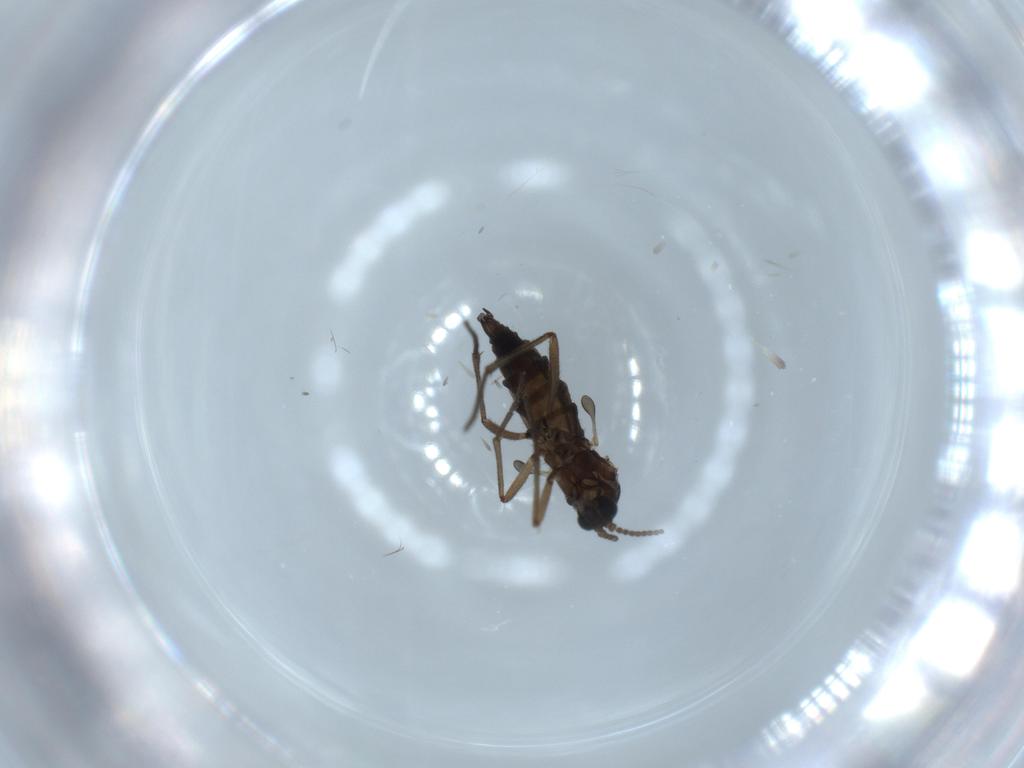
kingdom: Animalia
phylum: Arthropoda
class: Insecta
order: Diptera
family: Sciaridae
